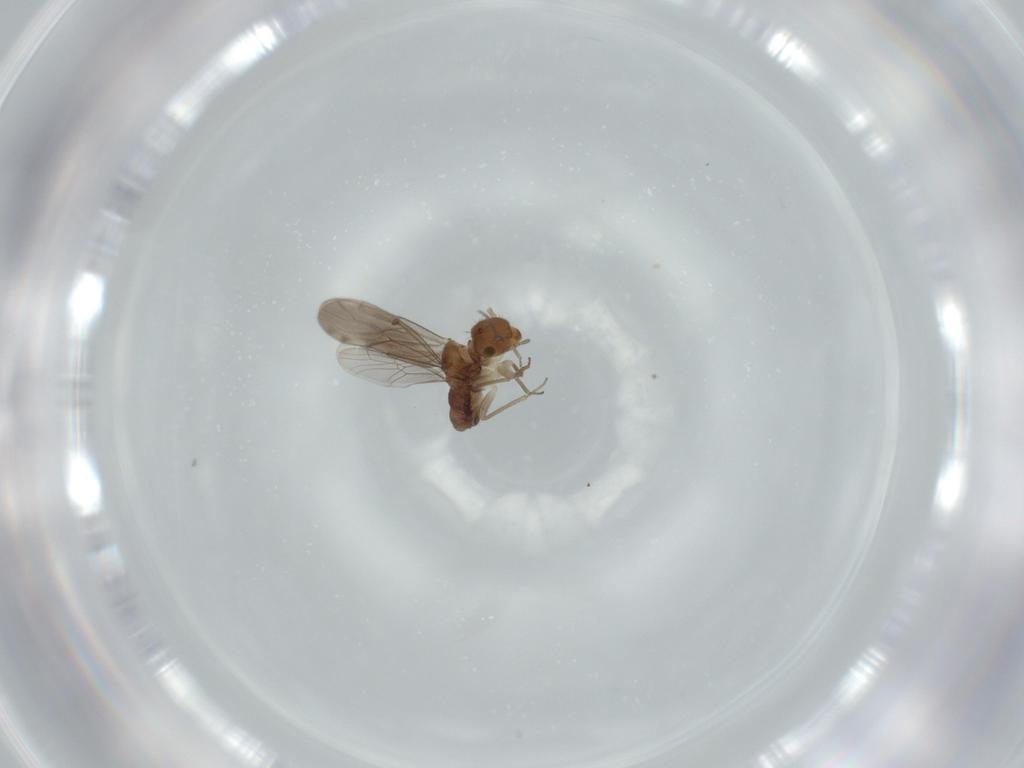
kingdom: Animalia
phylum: Arthropoda
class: Insecta
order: Psocodea
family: Ectopsocidae
